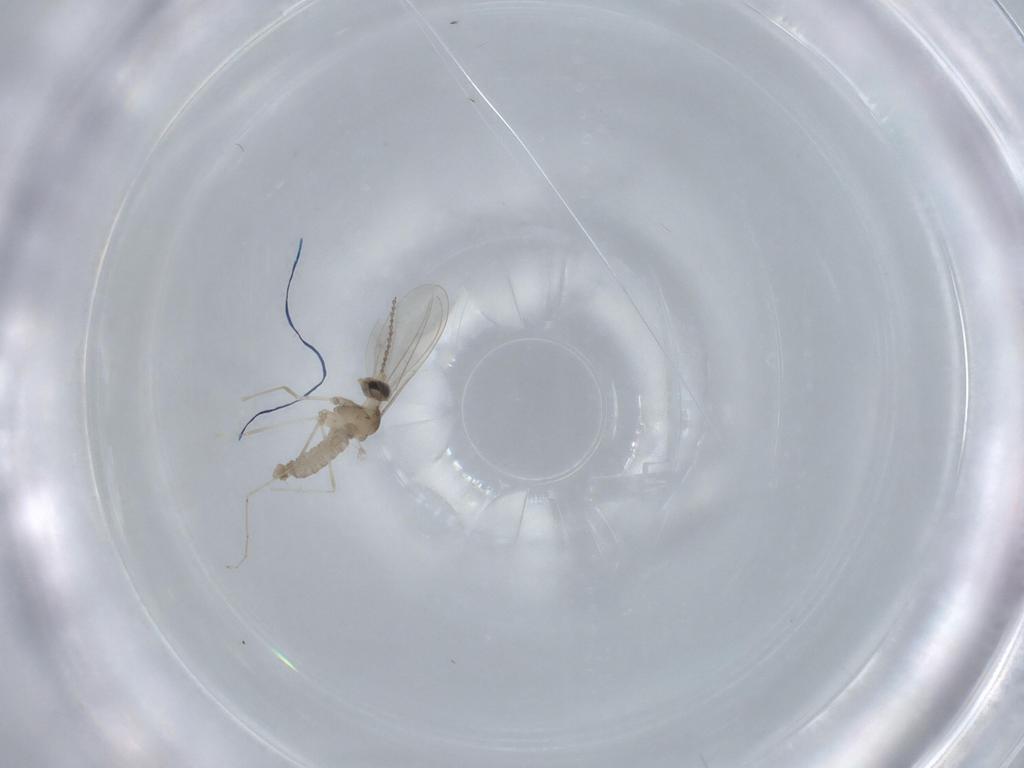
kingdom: Animalia
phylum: Arthropoda
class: Insecta
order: Diptera
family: Cecidomyiidae
